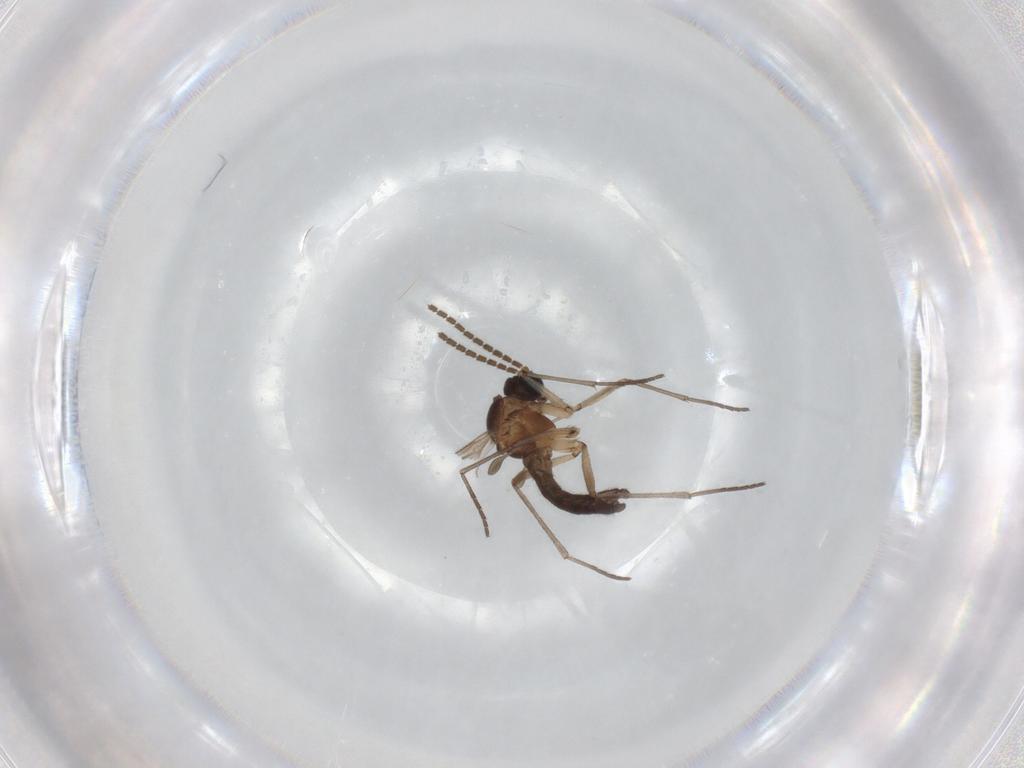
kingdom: Animalia
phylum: Arthropoda
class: Insecta
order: Diptera
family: Sciaridae
